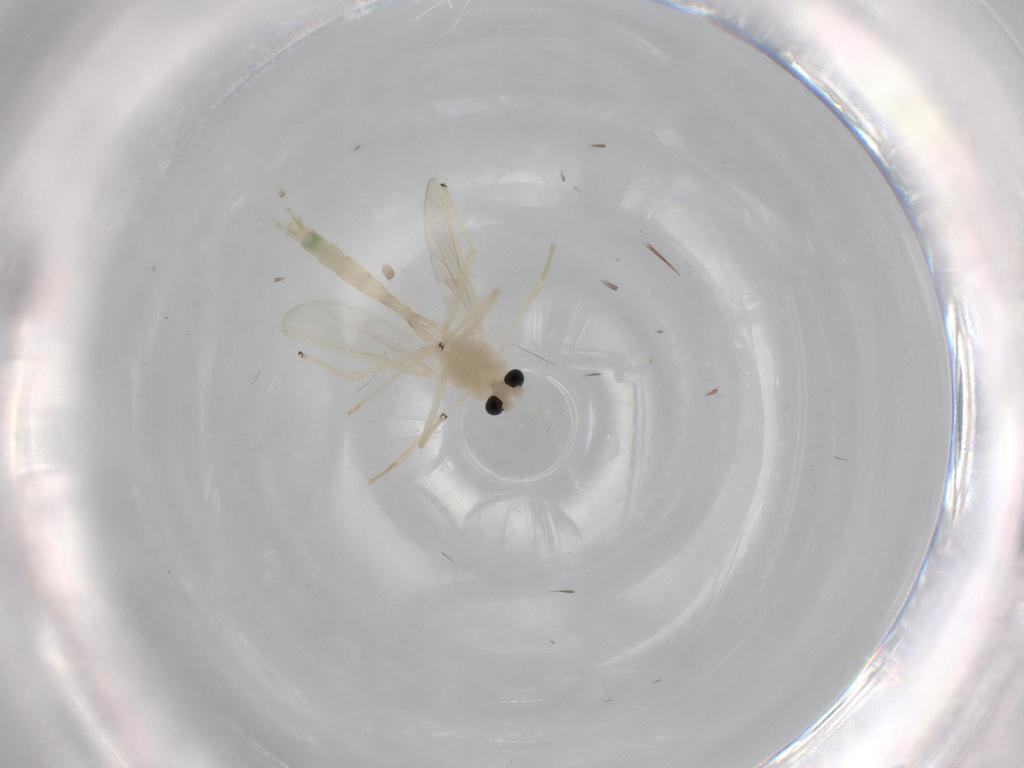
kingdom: Animalia
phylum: Arthropoda
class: Insecta
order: Diptera
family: Chironomidae
